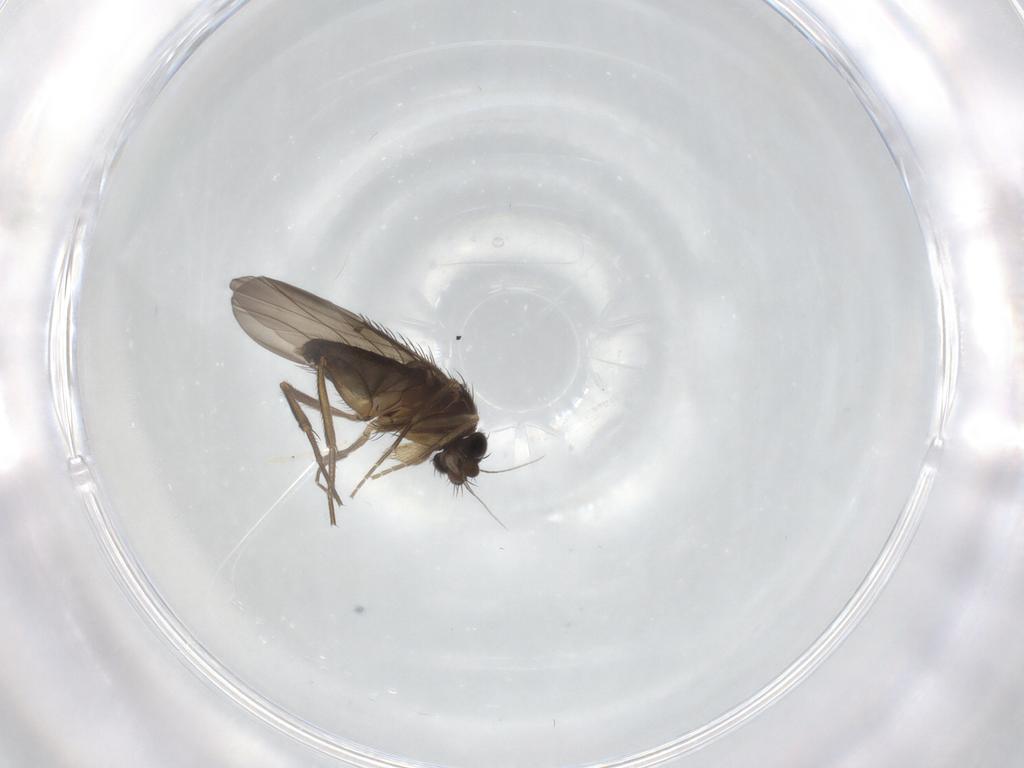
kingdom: Animalia
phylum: Arthropoda
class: Insecta
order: Diptera
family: Phoridae
